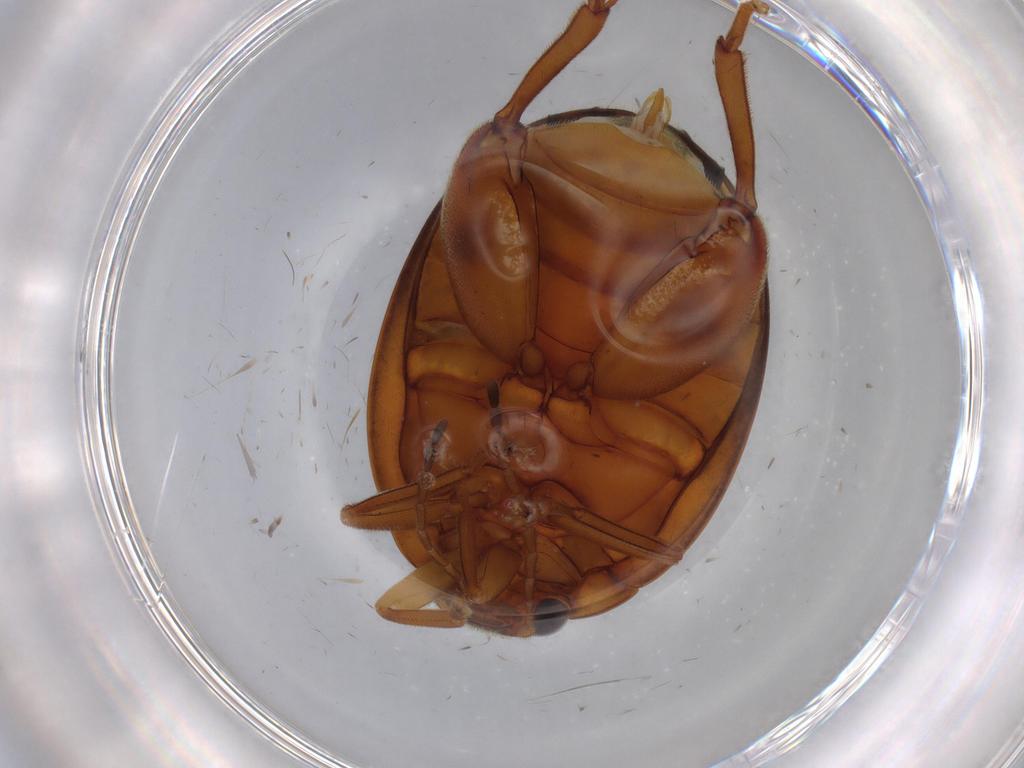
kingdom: Animalia
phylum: Arthropoda
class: Insecta
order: Coleoptera
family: Scirtidae
